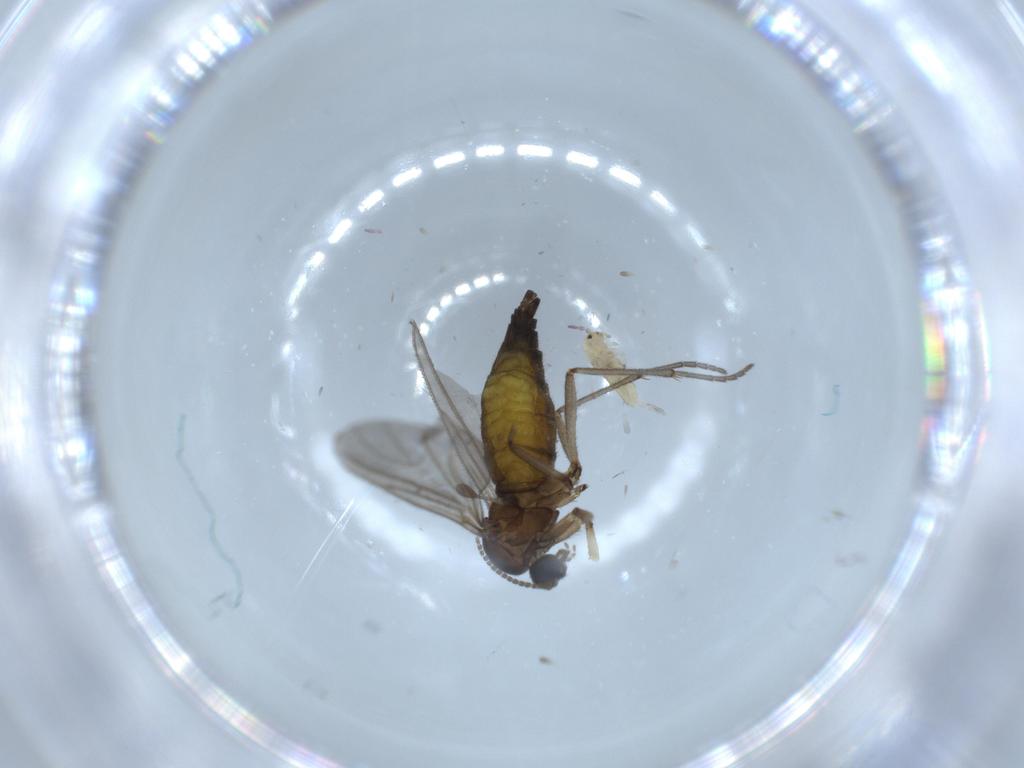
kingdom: Animalia
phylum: Arthropoda
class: Insecta
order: Diptera
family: Sciaridae
